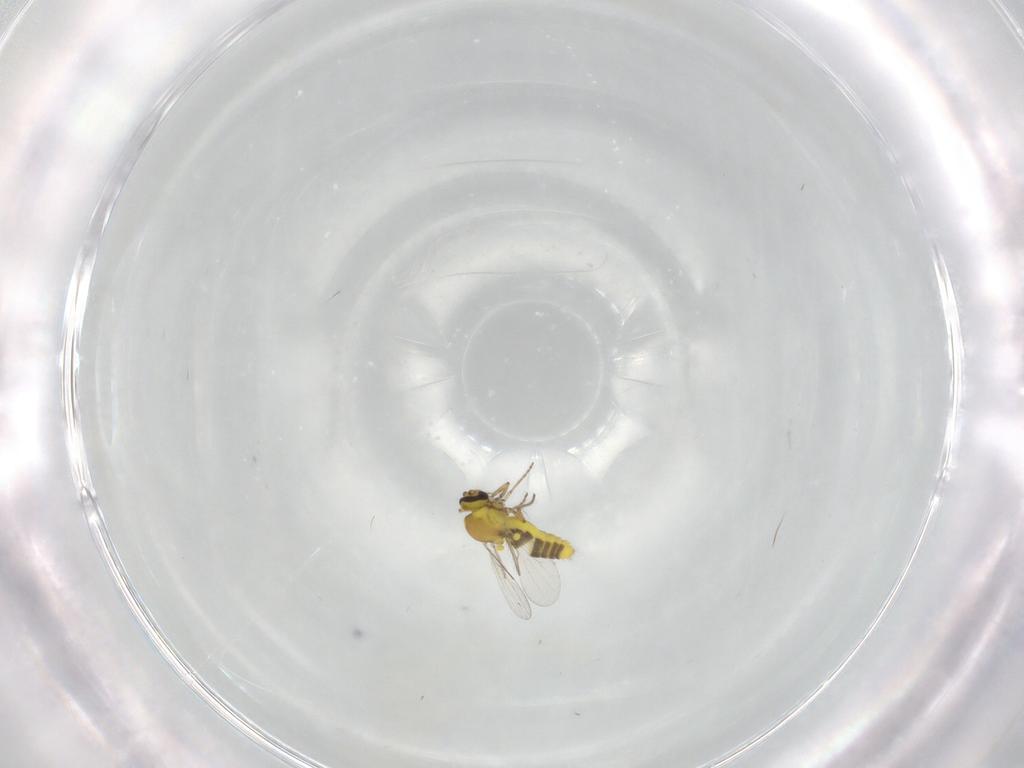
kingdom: Animalia
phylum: Arthropoda
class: Insecta
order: Diptera
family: Ceratopogonidae
